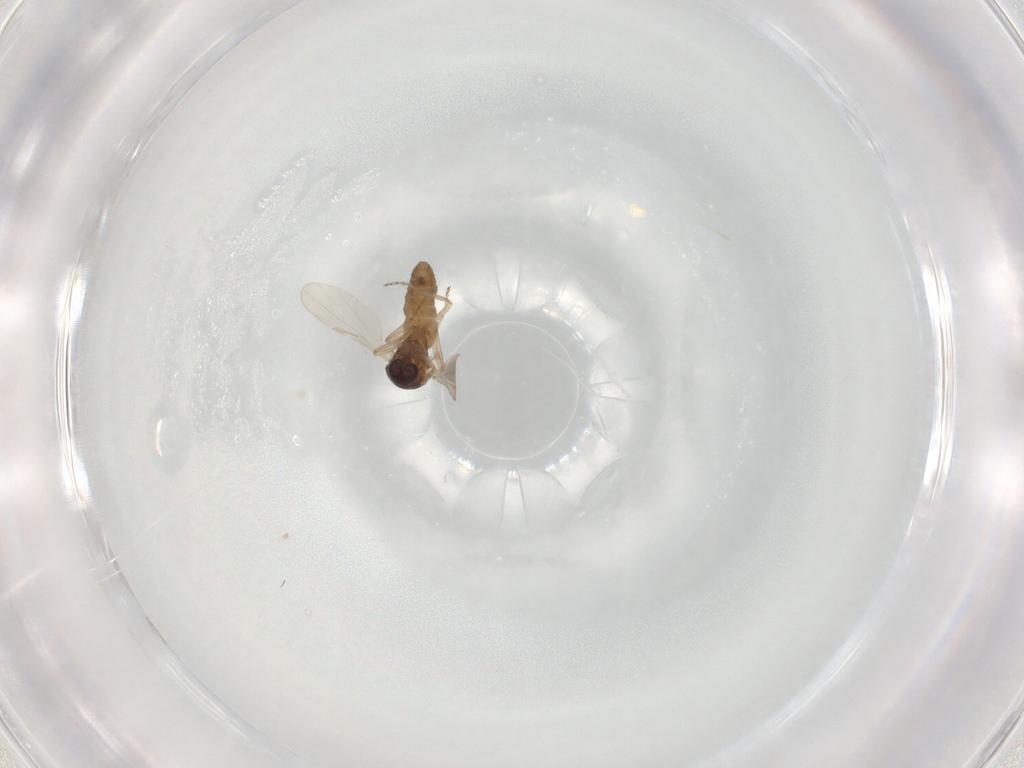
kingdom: Animalia
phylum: Arthropoda
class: Insecta
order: Diptera
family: Ceratopogonidae
